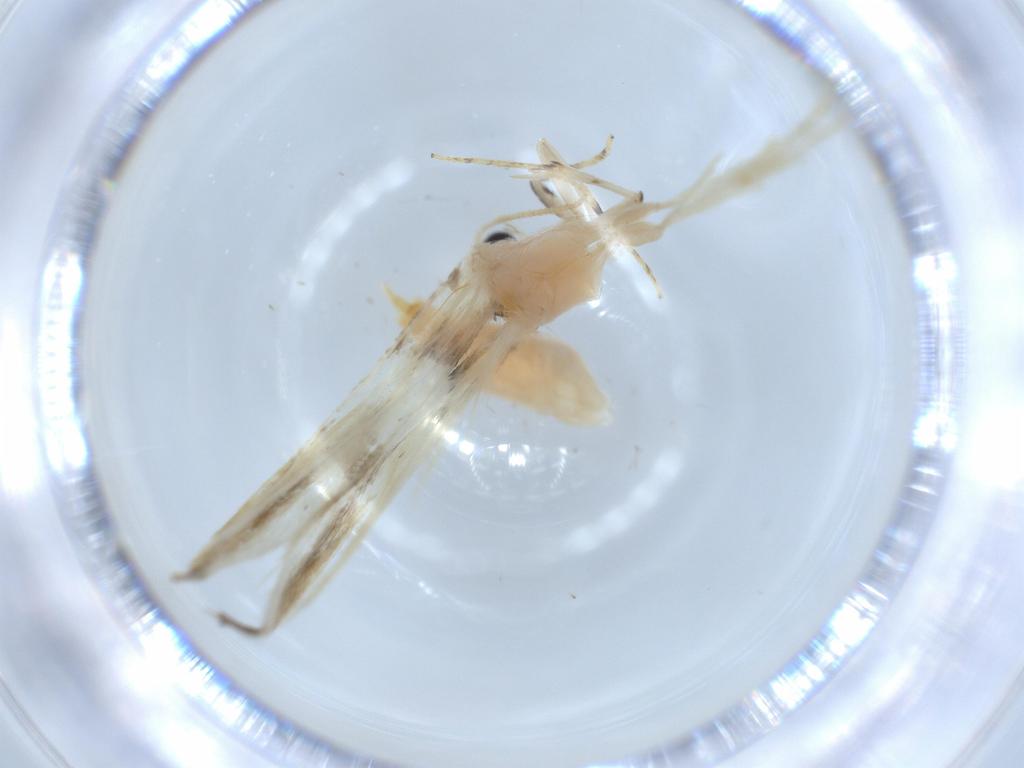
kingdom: Animalia
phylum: Arthropoda
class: Insecta
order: Lepidoptera
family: Tineidae
